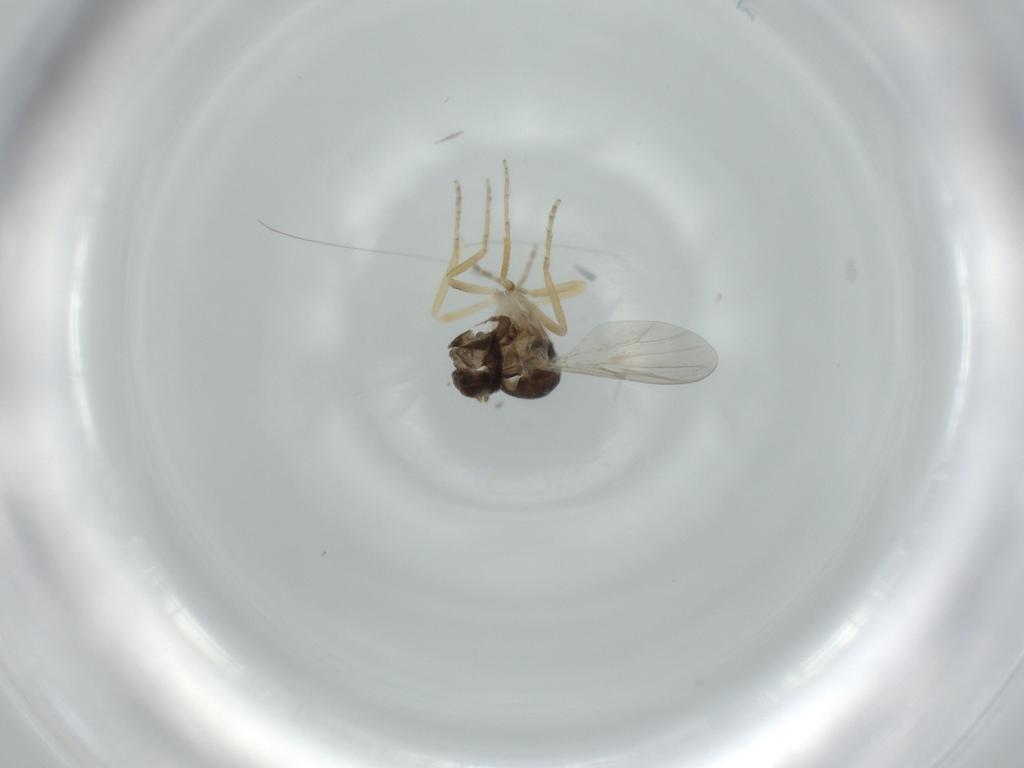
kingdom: Animalia
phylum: Arthropoda
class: Insecta
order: Diptera
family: Ceratopogonidae
